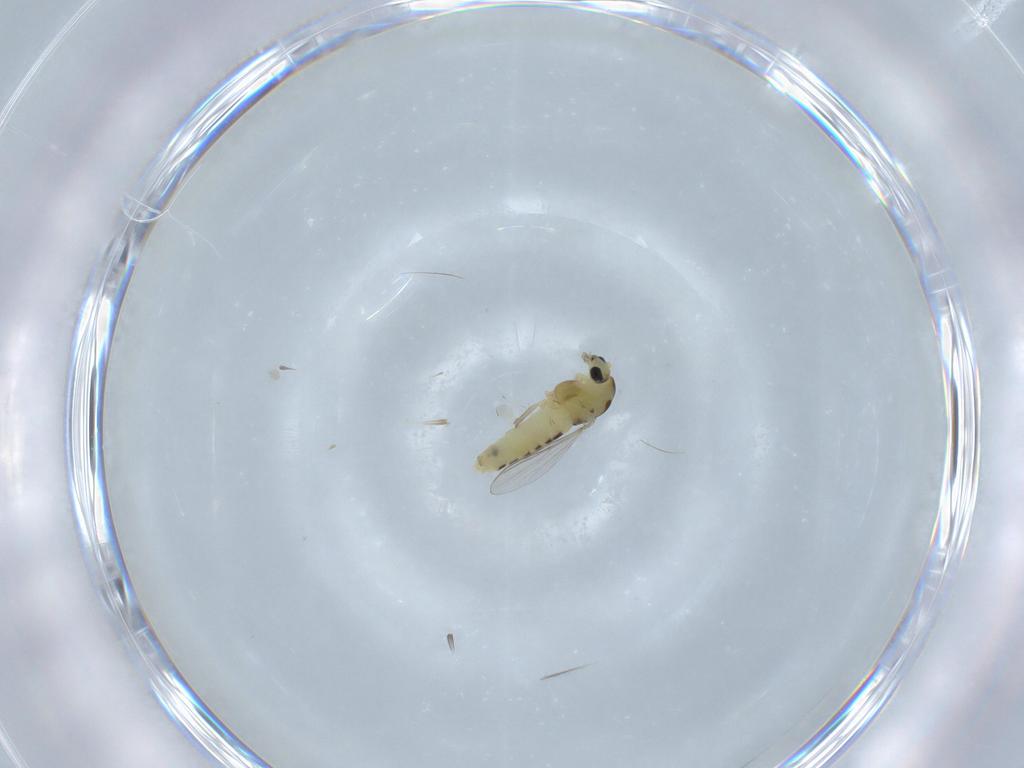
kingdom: Animalia
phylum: Arthropoda
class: Insecta
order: Diptera
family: Chironomidae
